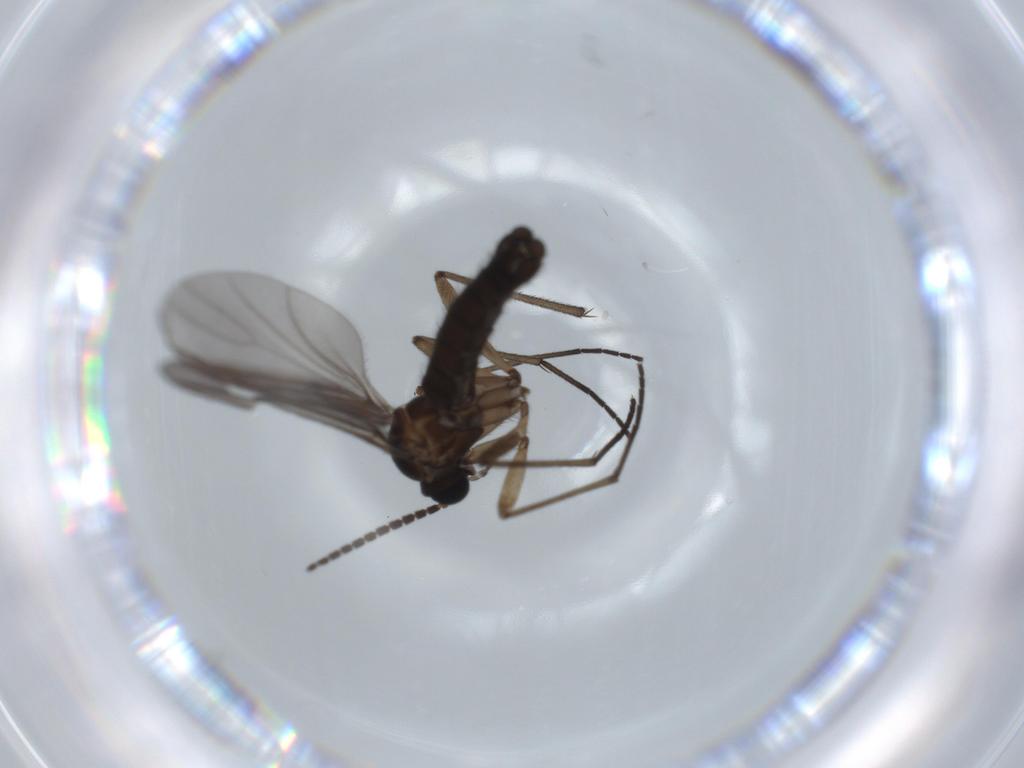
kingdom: Animalia
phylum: Arthropoda
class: Insecta
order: Diptera
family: Sciaridae
